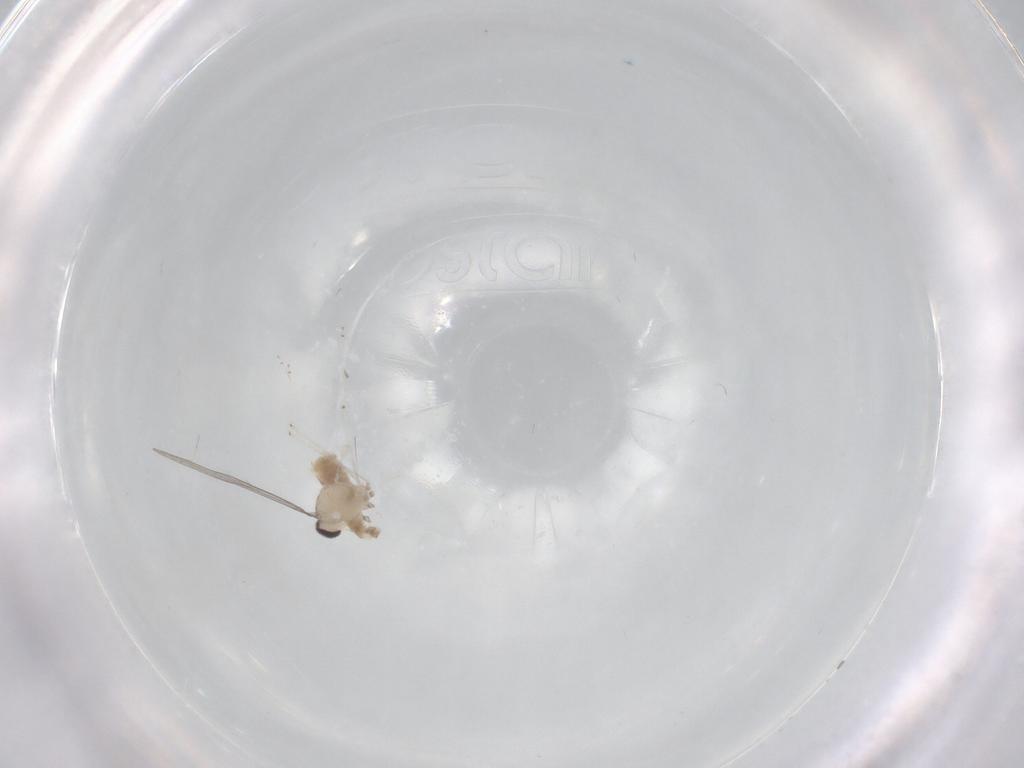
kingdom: Animalia
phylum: Arthropoda
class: Insecta
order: Diptera
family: Cecidomyiidae
